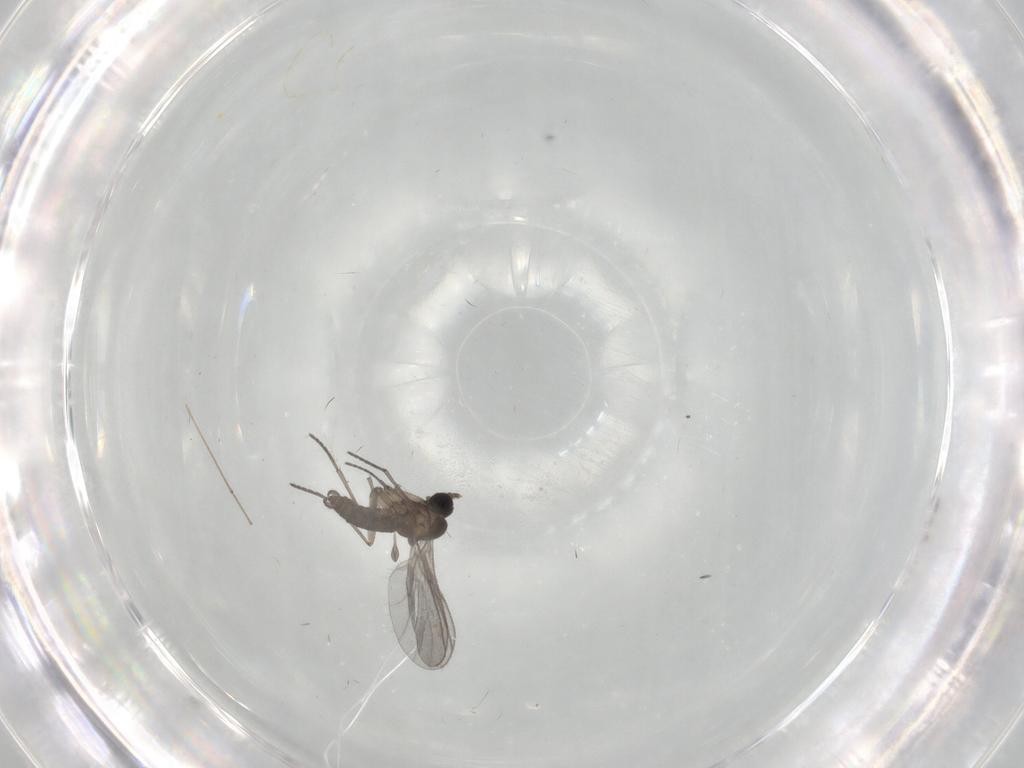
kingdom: Animalia
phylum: Arthropoda
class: Insecta
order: Diptera
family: Sciaridae
